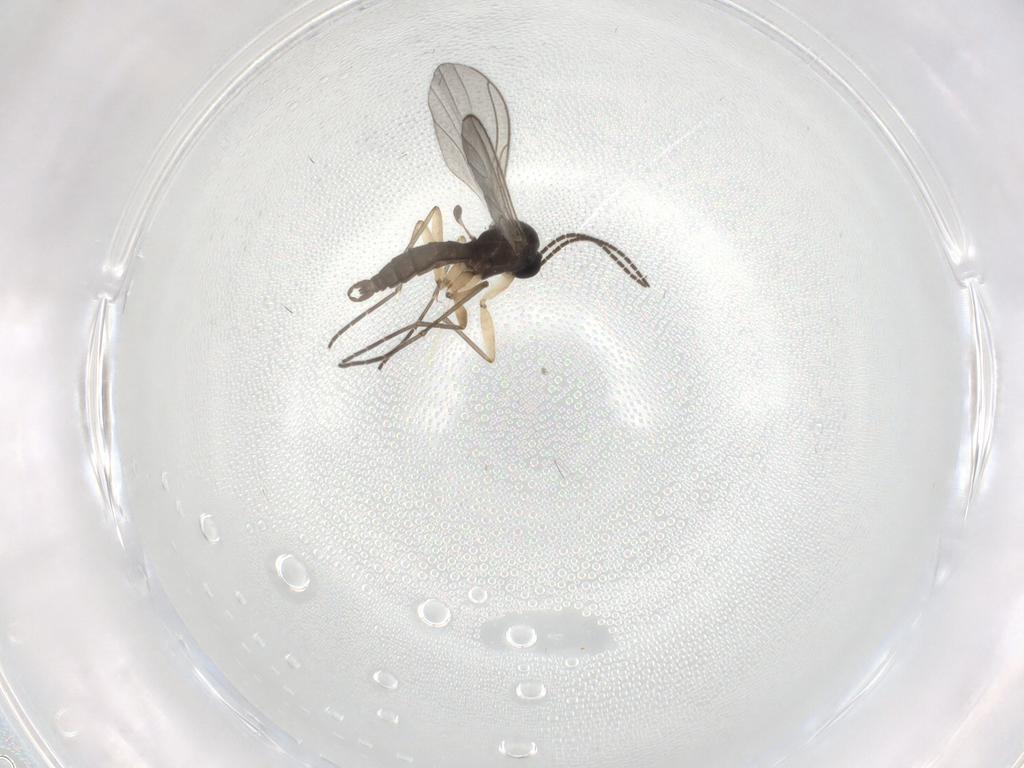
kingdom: Animalia
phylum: Arthropoda
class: Insecta
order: Diptera
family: Sciaridae
